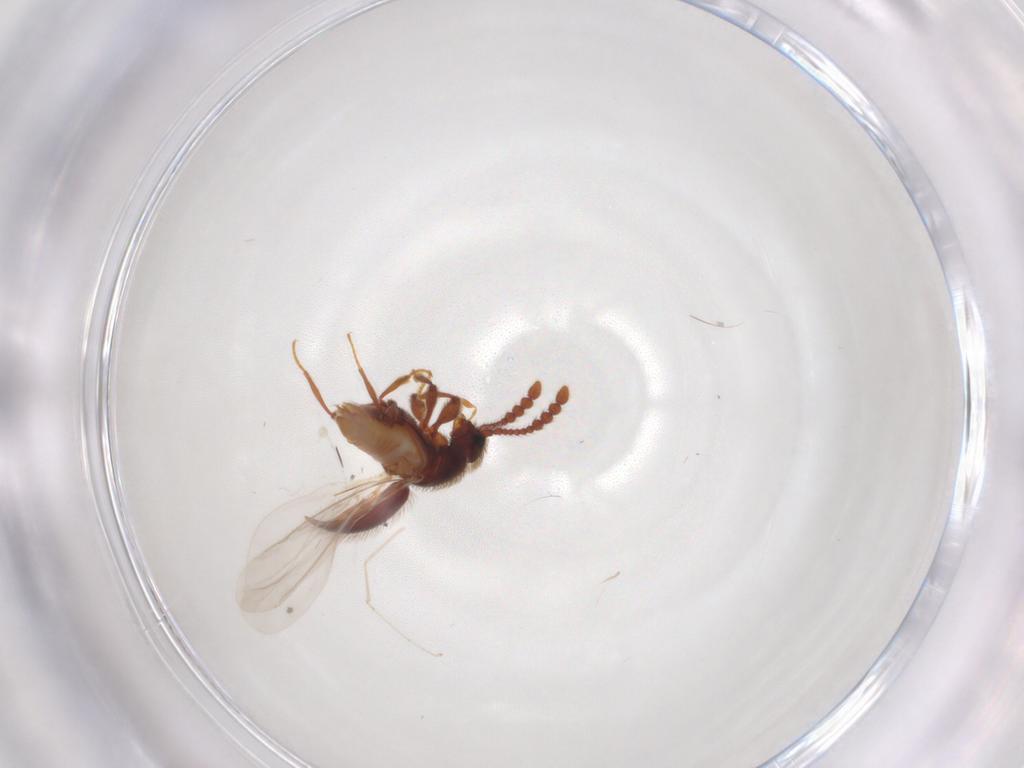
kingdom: Animalia
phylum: Arthropoda
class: Insecta
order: Coleoptera
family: Staphylinidae
